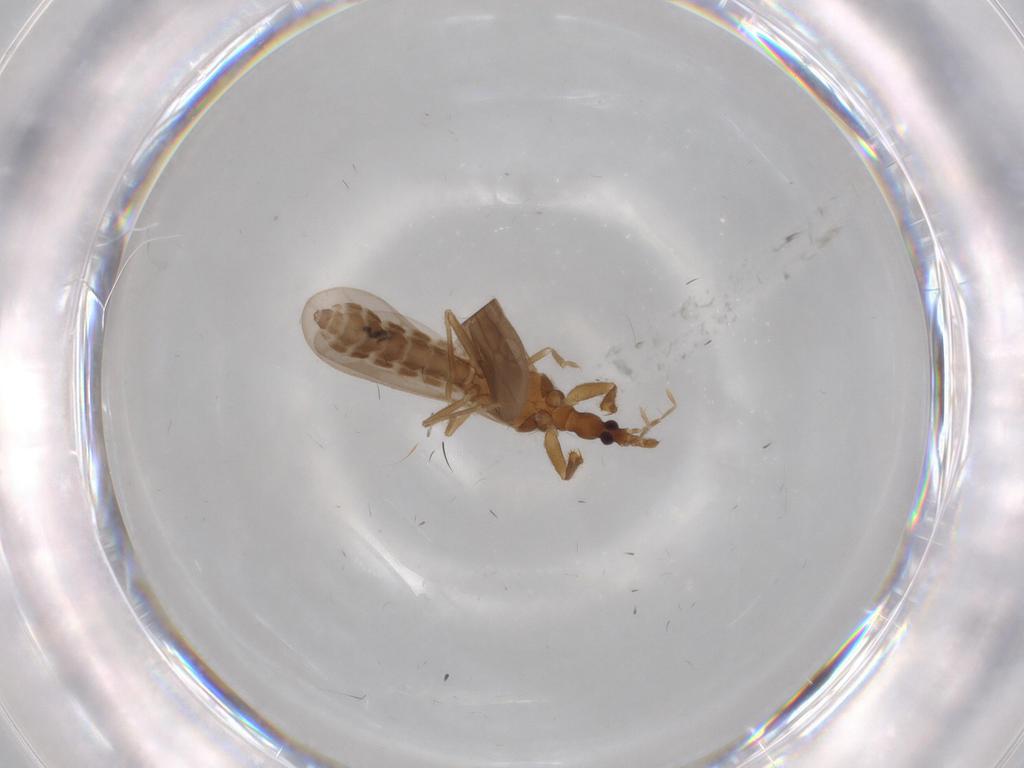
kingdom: Animalia
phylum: Arthropoda
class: Insecta
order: Hemiptera
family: Enicocephalidae
